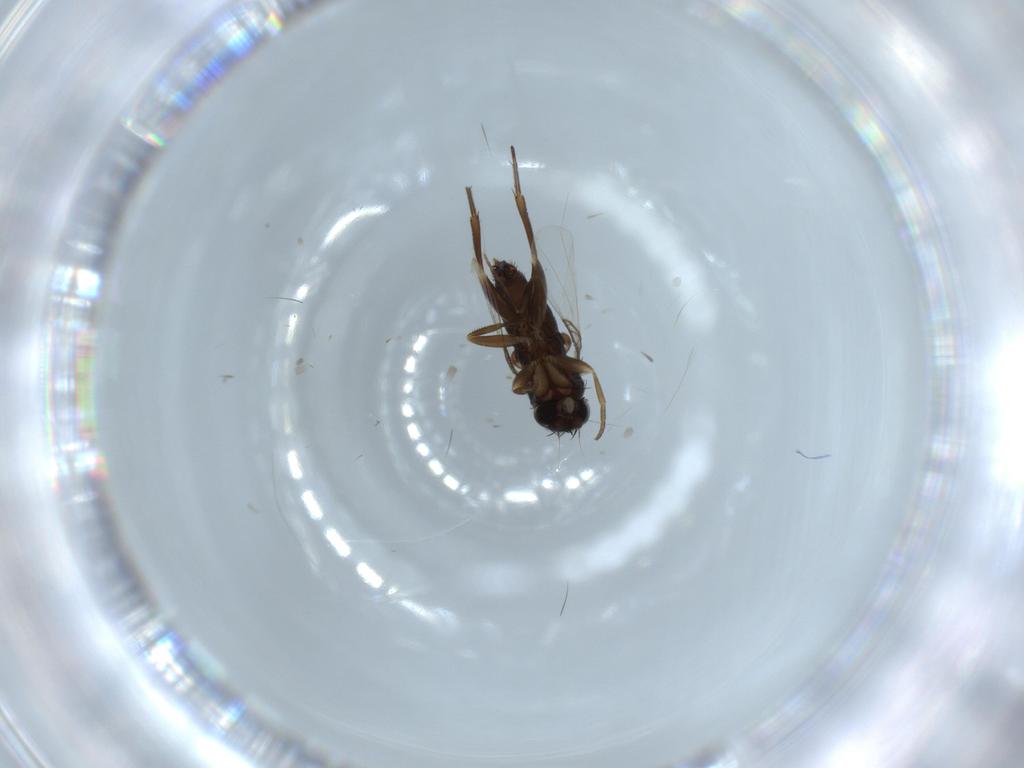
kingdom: Animalia
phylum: Arthropoda
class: Insecta
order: Diptera
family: Phoridae
